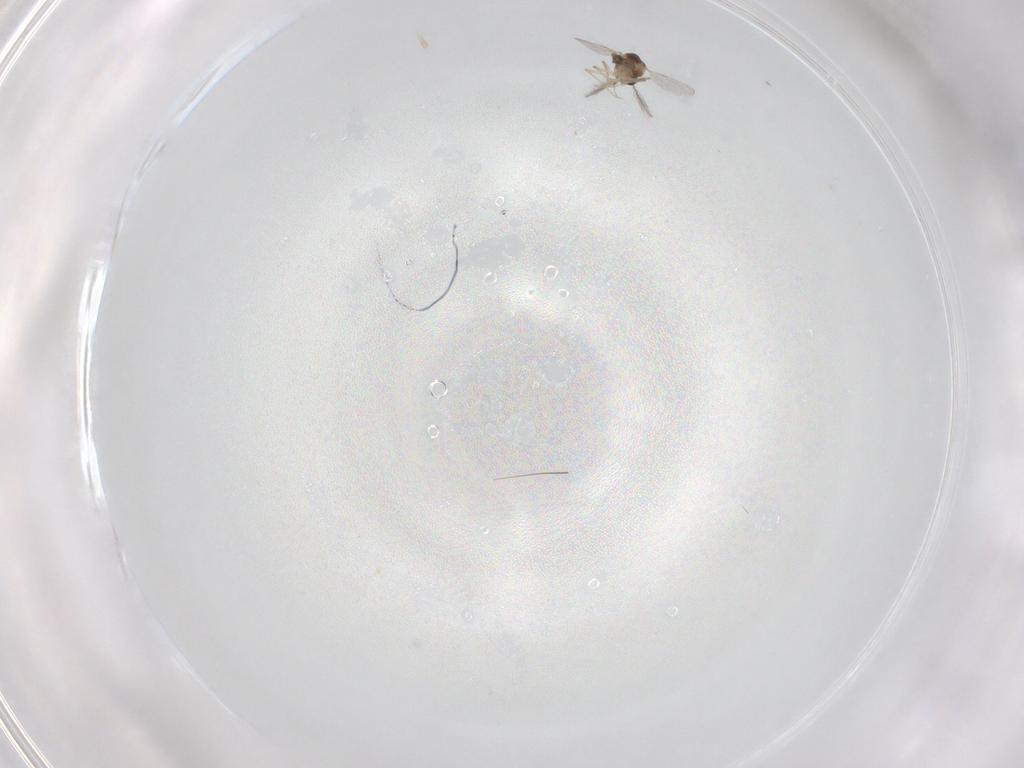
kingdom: Animalia
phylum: Arthropoda
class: Insecta
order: Diptera
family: Ceratopogonidae
